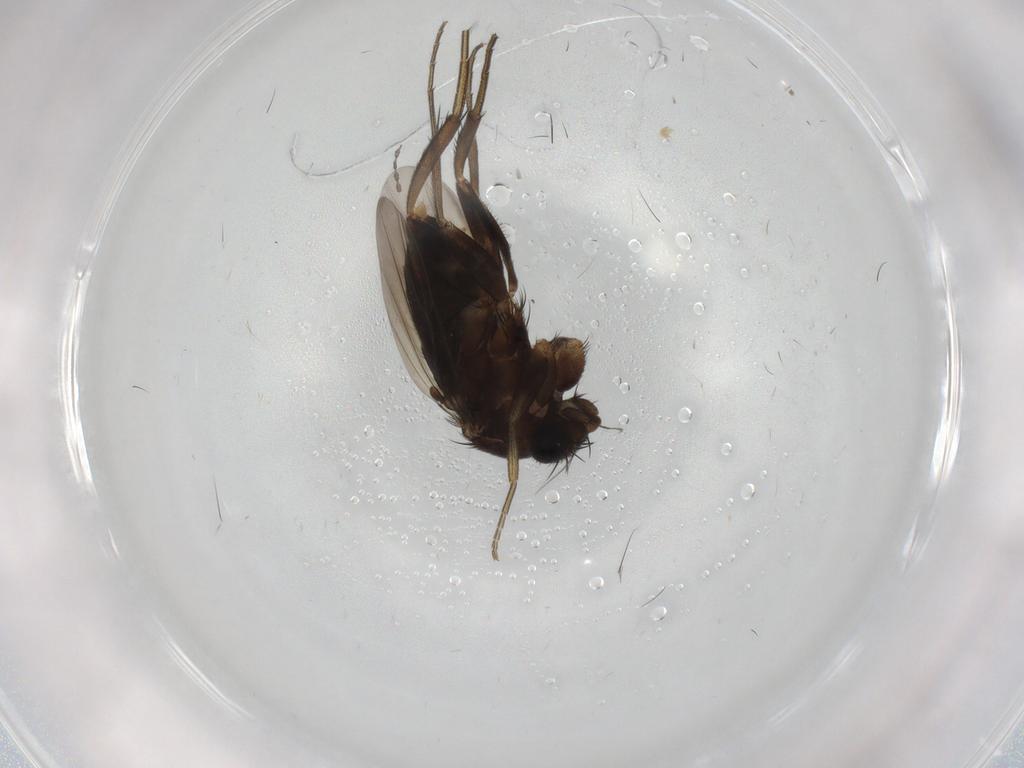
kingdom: Animalia
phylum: Arthropoda
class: Insecta
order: Diptera
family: Phoridae
